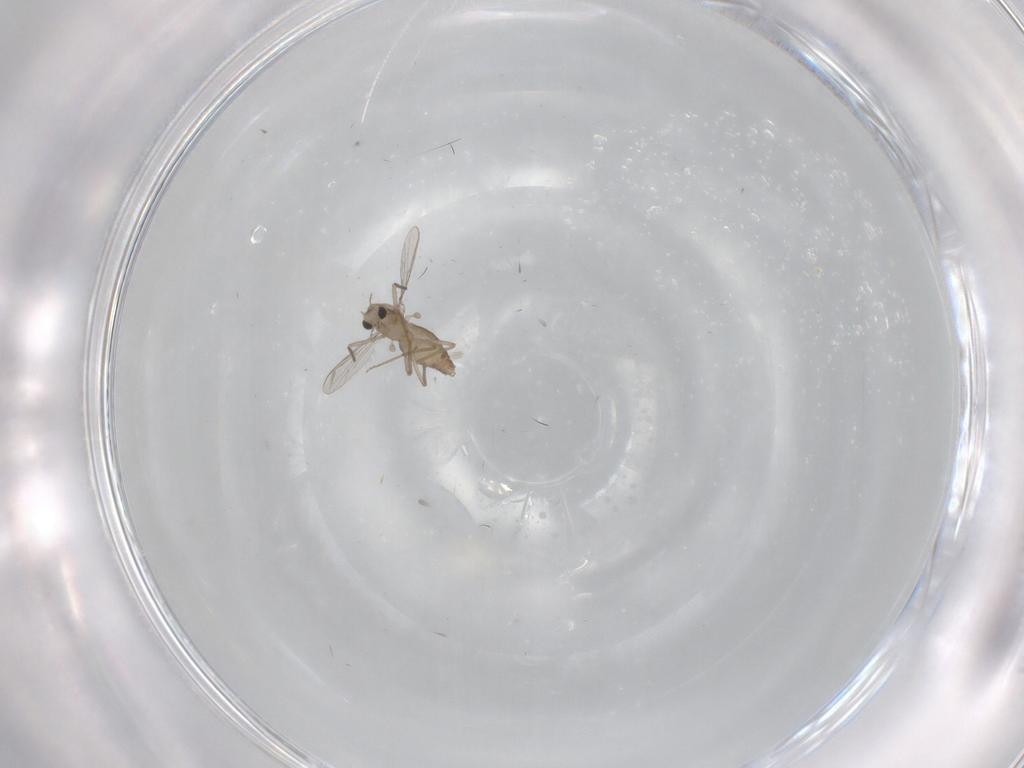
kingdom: Animalia
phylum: Arthropoda
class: Insecta
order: Diptera
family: Chironomidae
